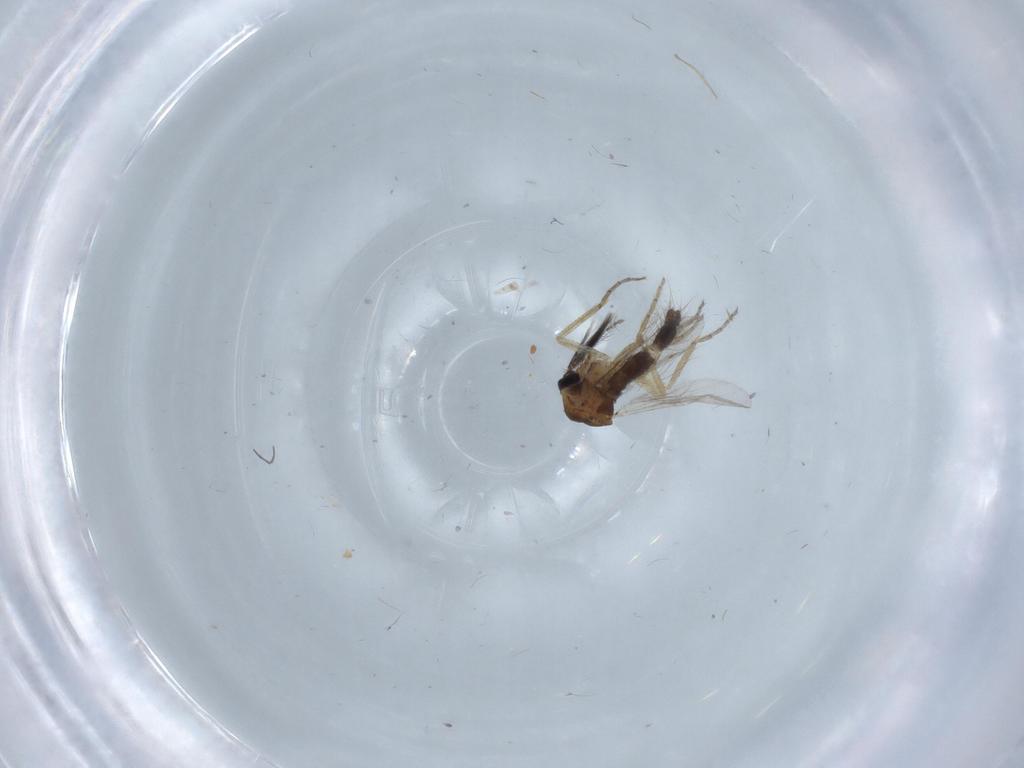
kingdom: Animalia
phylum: Arthropoda
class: Insecta
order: Diptera
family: Ceratopogonidae
